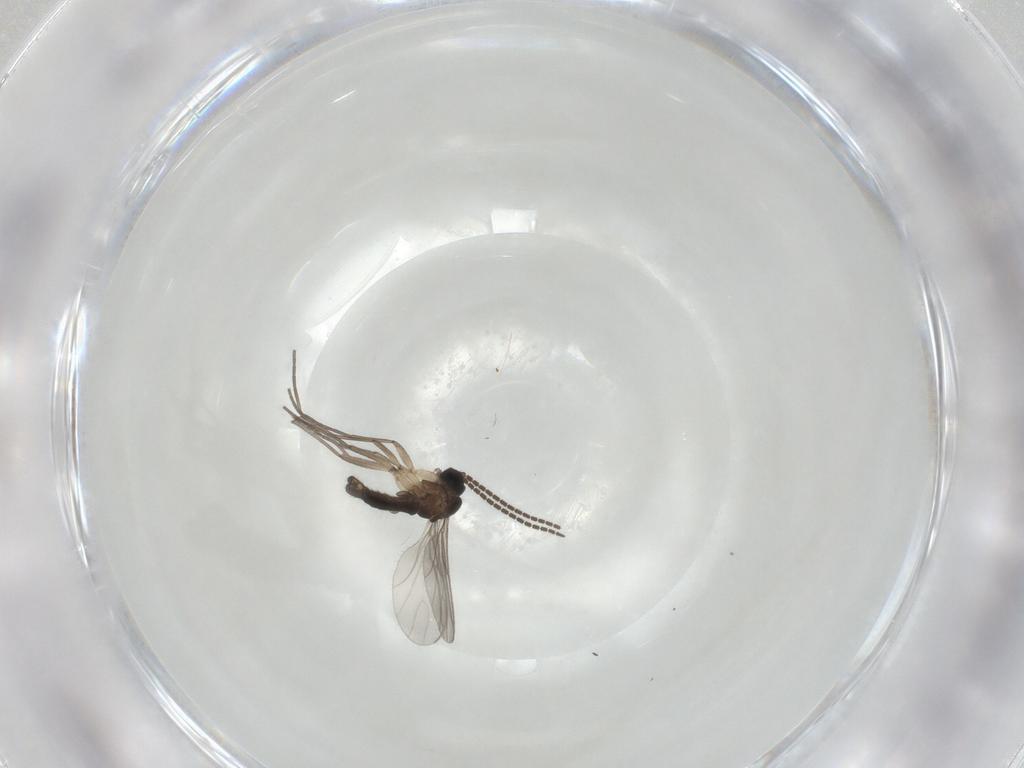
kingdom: Animalia
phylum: Arthropoda
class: Insecta
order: Diptera
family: Sciaridae
